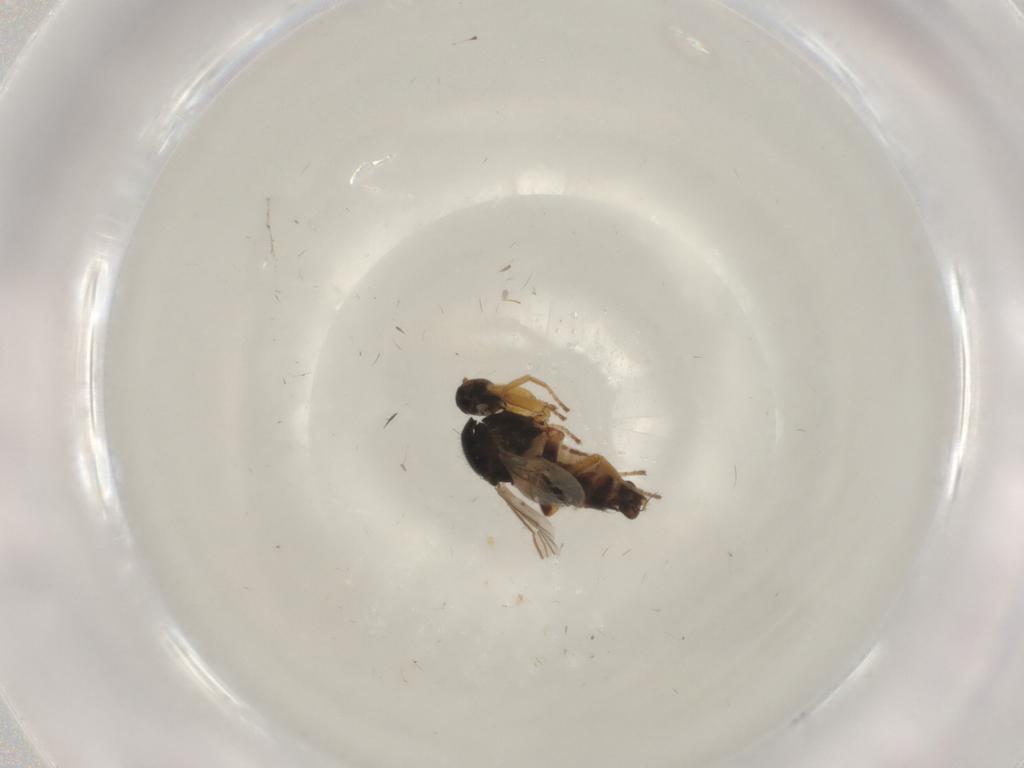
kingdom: Animalia
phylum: Arthropoda
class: Insecta
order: Diptera
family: Hybotidae
